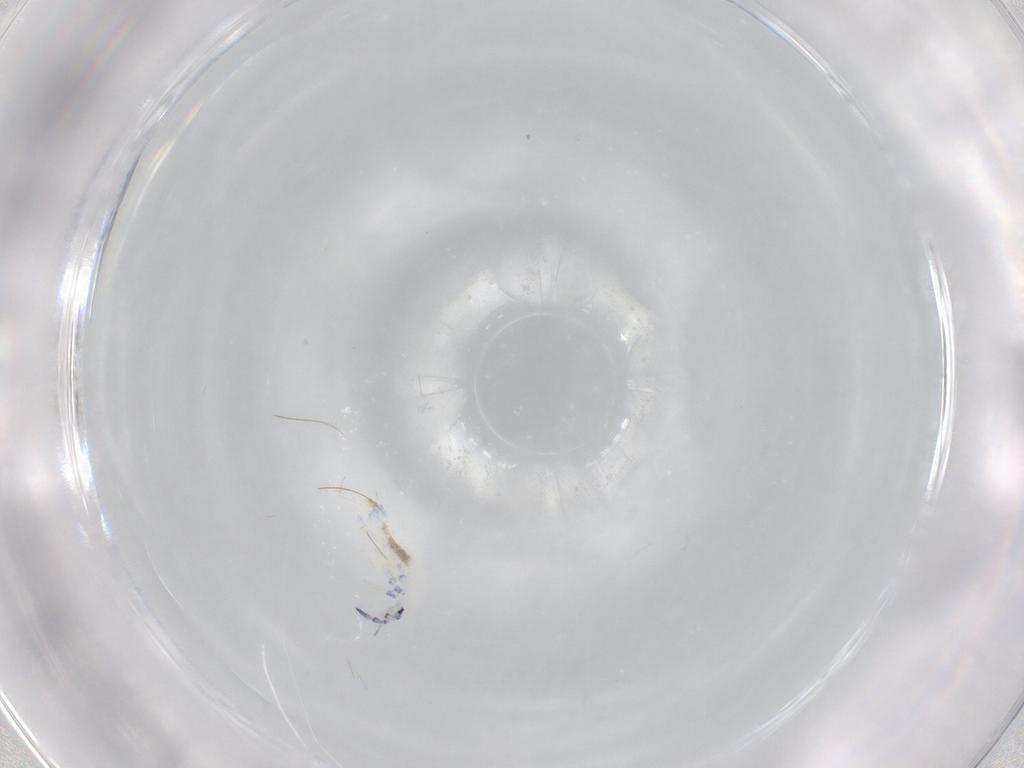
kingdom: Animalia
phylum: Arthropoda
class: Collembola
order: Entomobryomorpha
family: Entomobryidae
